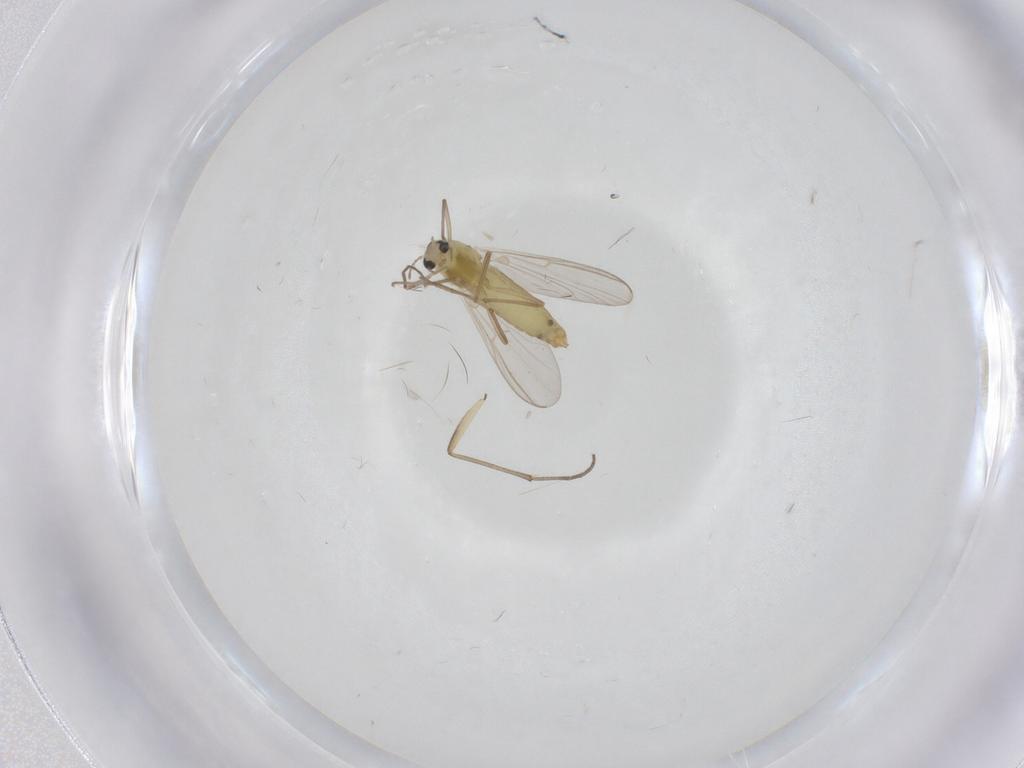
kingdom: Animalia
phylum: Arthropoda
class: Insecta
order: Diptera
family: Chironomidae
